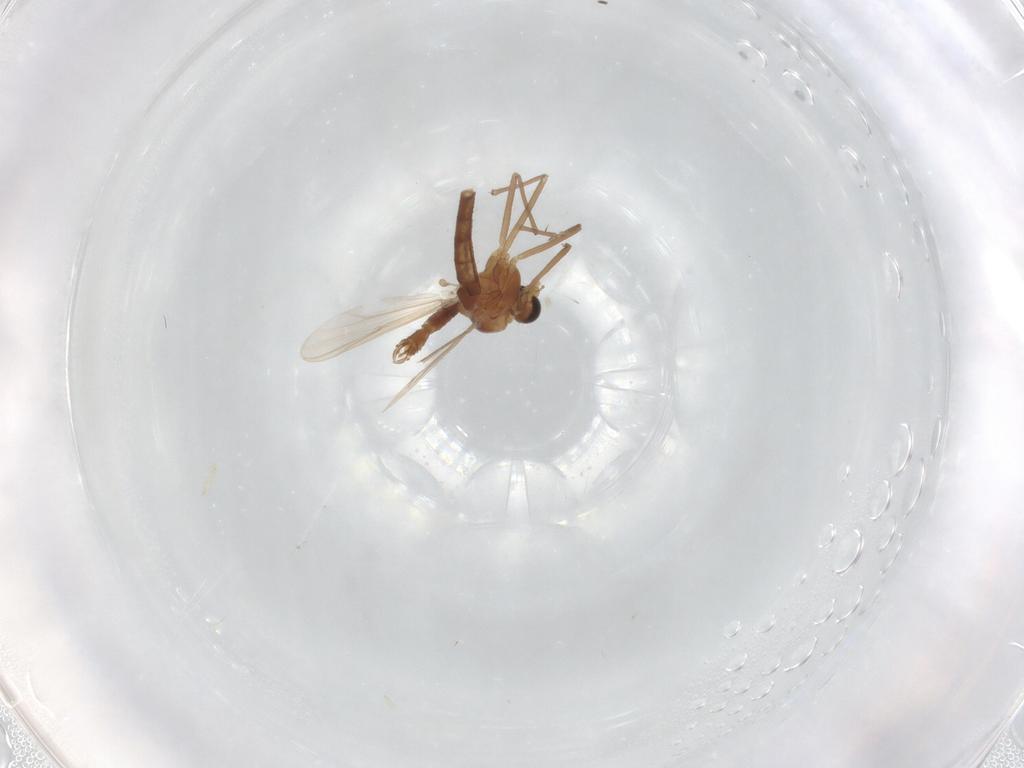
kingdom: Animalia
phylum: Arthropoda
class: Insecta
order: Diptera
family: Chironomidae
